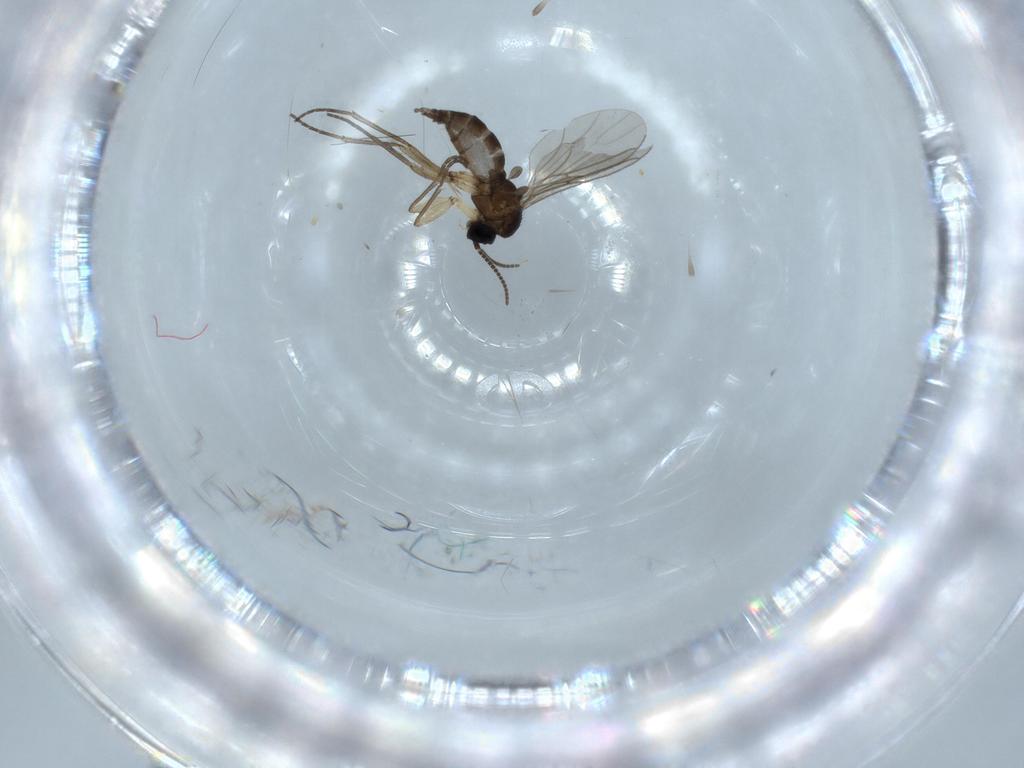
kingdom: Animalia
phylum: Arthropoda
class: Insecta
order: Diptera
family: Sciaridae
